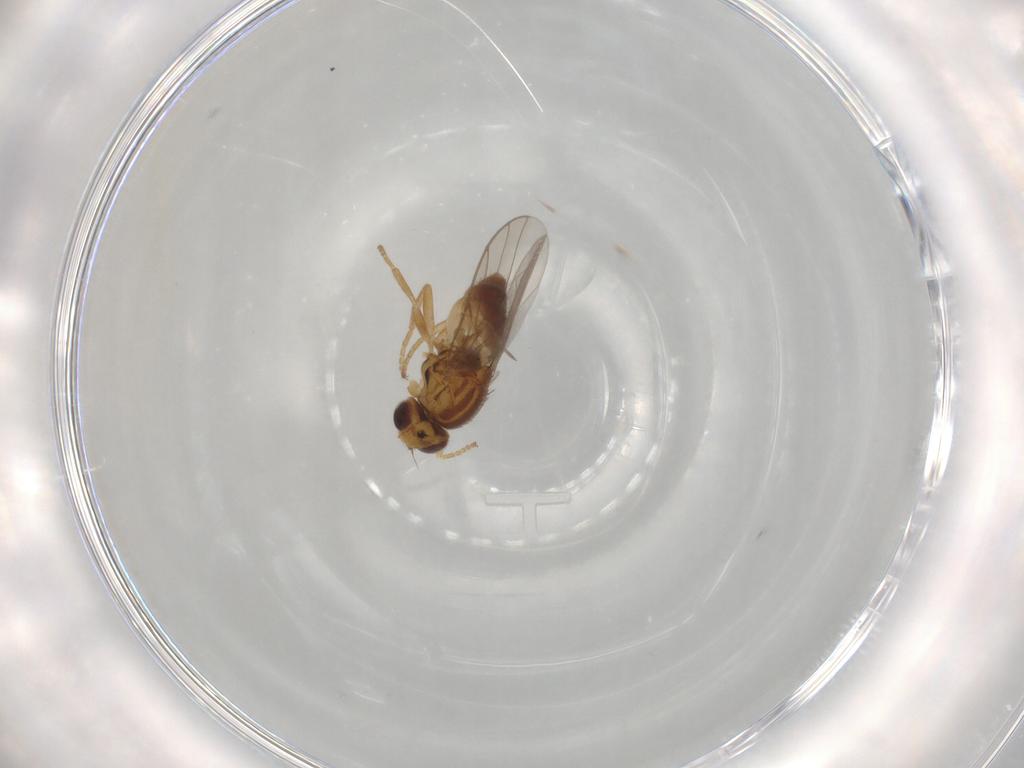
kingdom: Animalia
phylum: Arthropoda
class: Insecta
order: Diptera
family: Chloropidae
